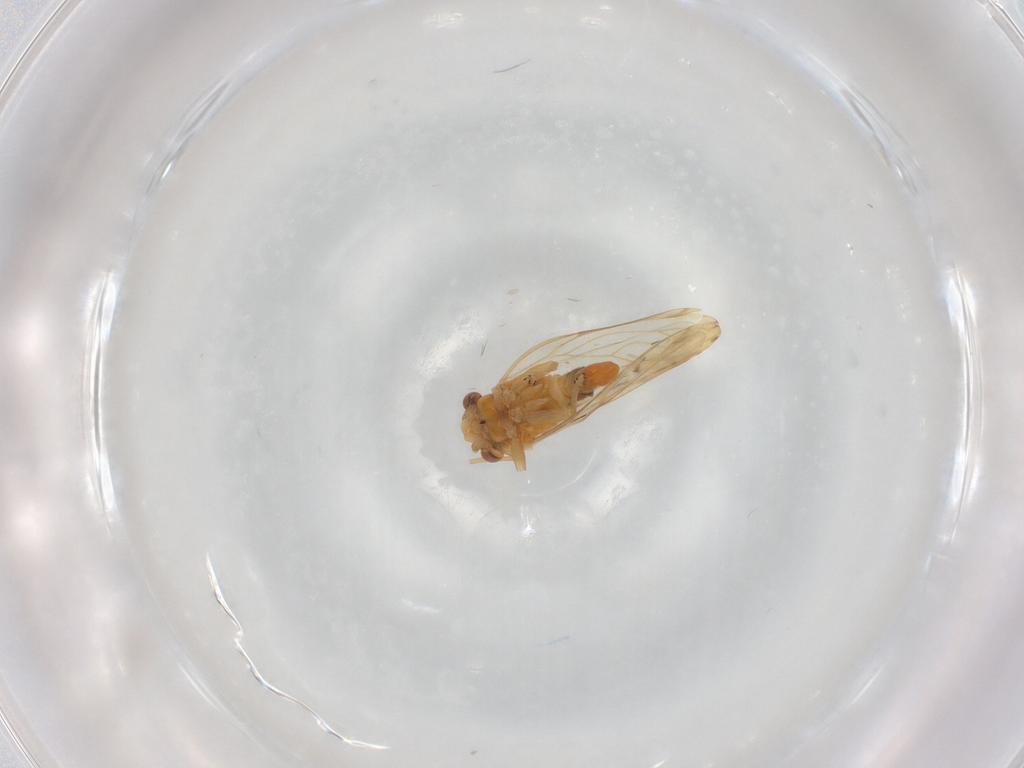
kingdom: Animalia
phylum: Arthropoda
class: Insecta
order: Hemiptera
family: Psyllidae
